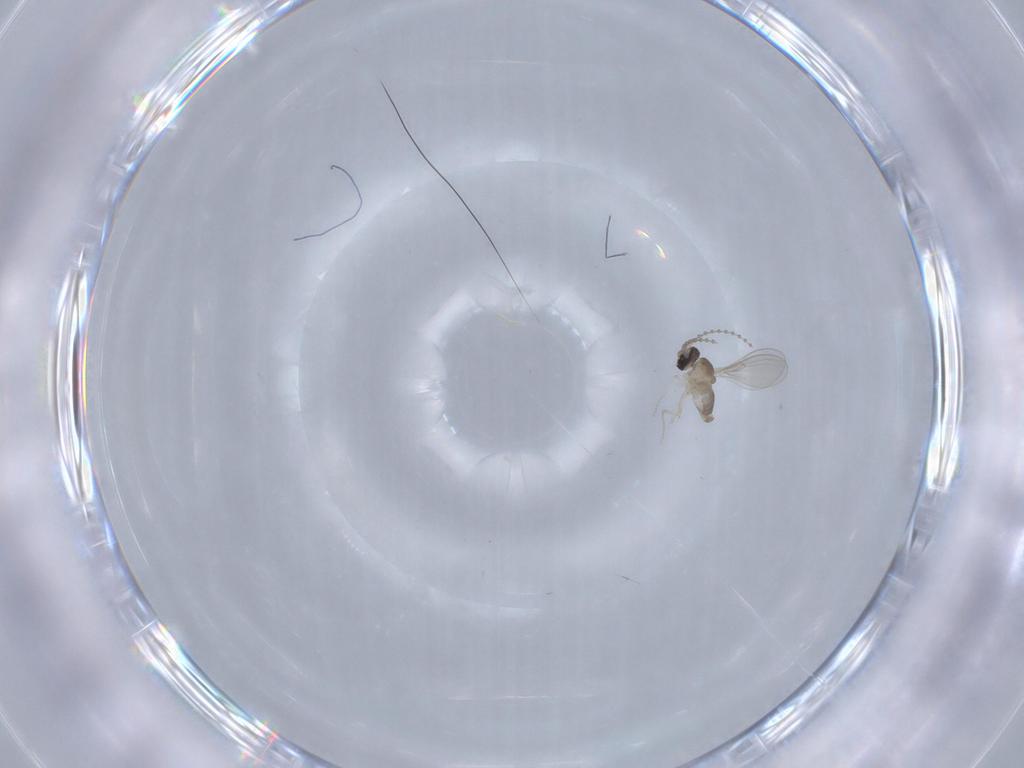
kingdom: Animalia
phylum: Arthropoda
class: Insecta
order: Diptera
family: Cecidomyiidae
